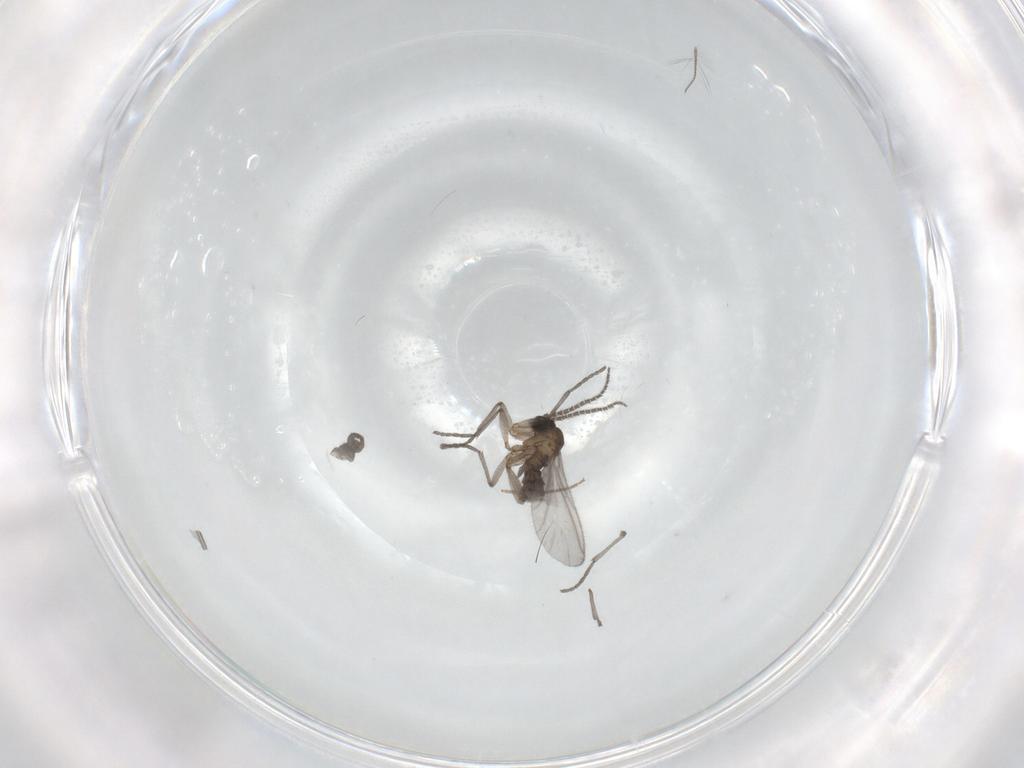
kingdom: Animalia
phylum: Arthropoda
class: Insecta
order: Diptera
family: Sciaridae
